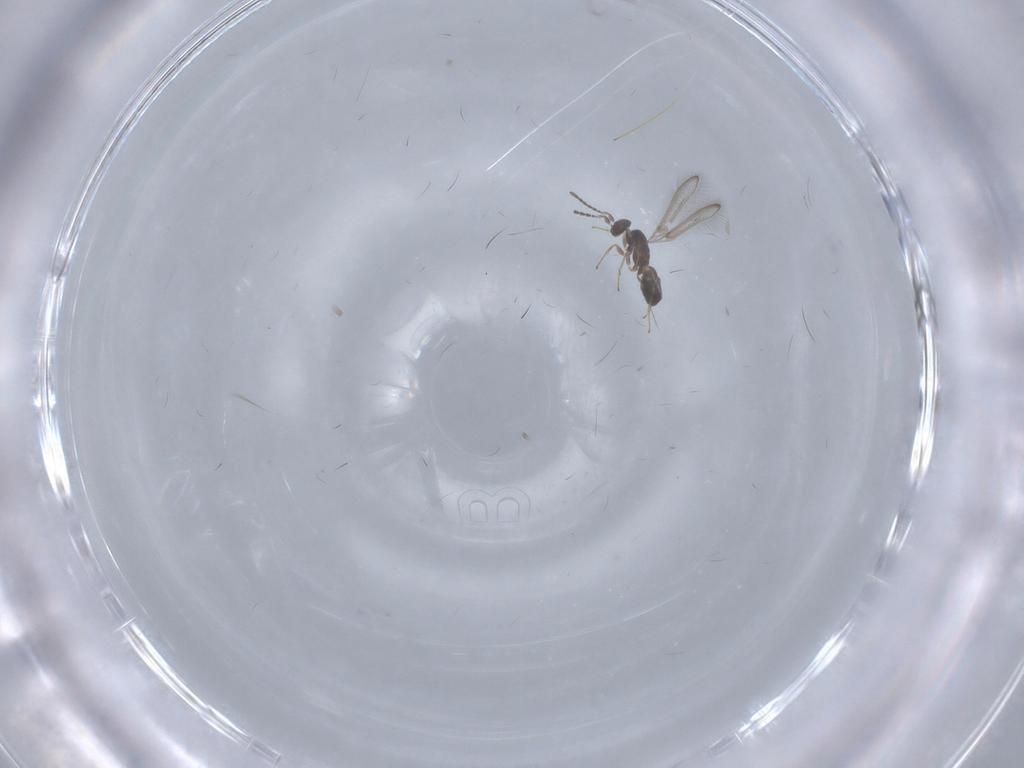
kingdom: Animalia
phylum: Arthropoda
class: Insecta
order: Hymenoptera
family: Mymaridae
